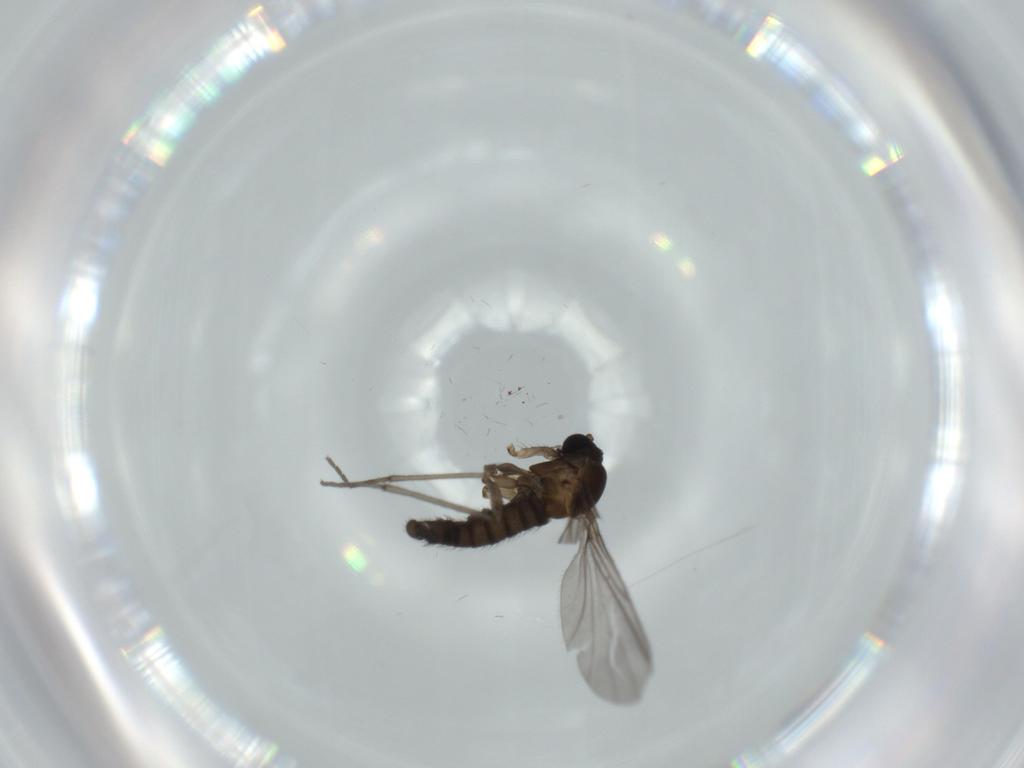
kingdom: Animalia
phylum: Arthropoda
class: Insecta
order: Diptera
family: Sciaridae
